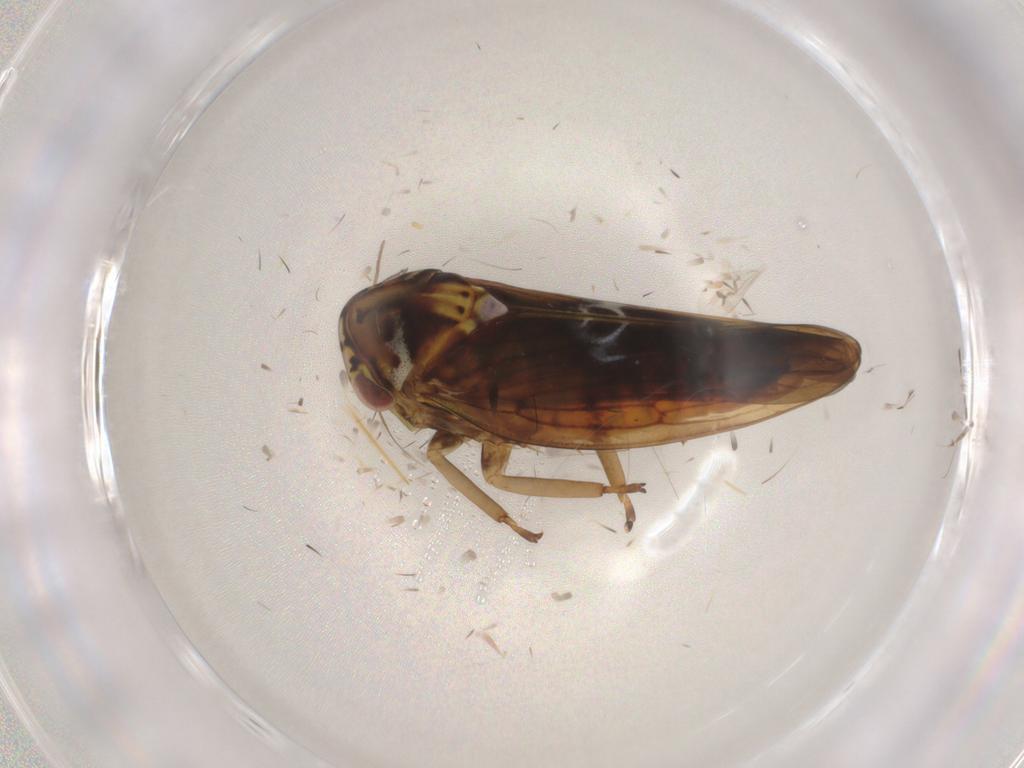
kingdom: Animalia
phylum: Arthropoda
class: Insecta
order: Hemiptera
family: Cicadellidae
